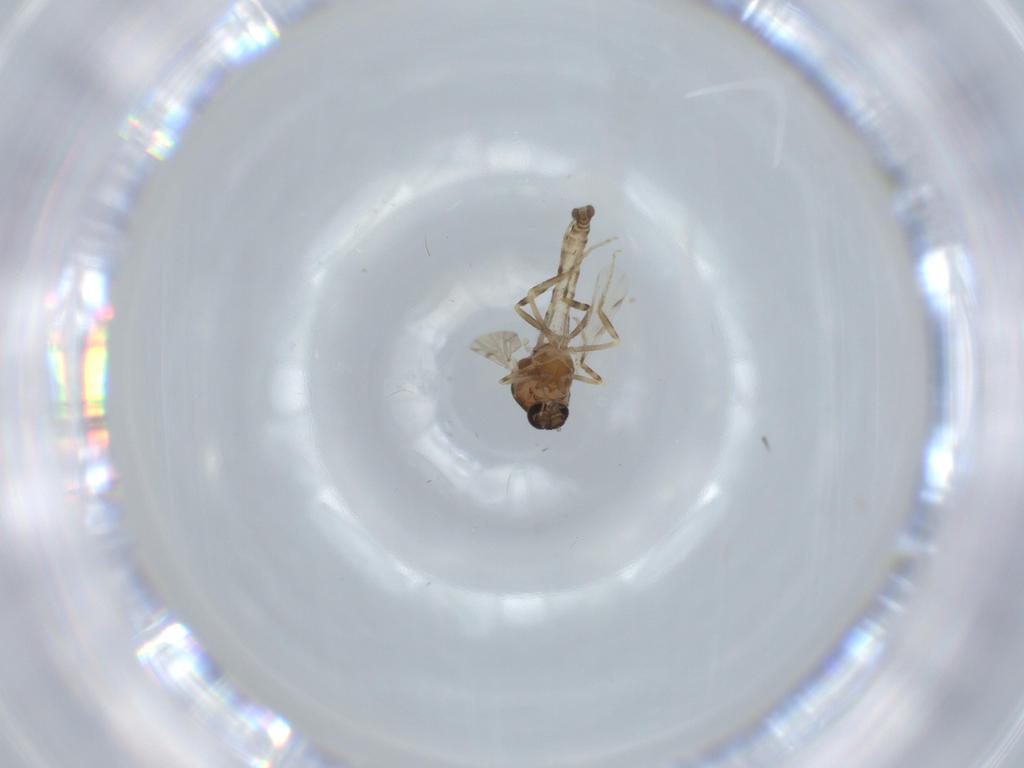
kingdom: Animalia
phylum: Arthropoda
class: Insecta
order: Diptera
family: Ceratopogonidae
